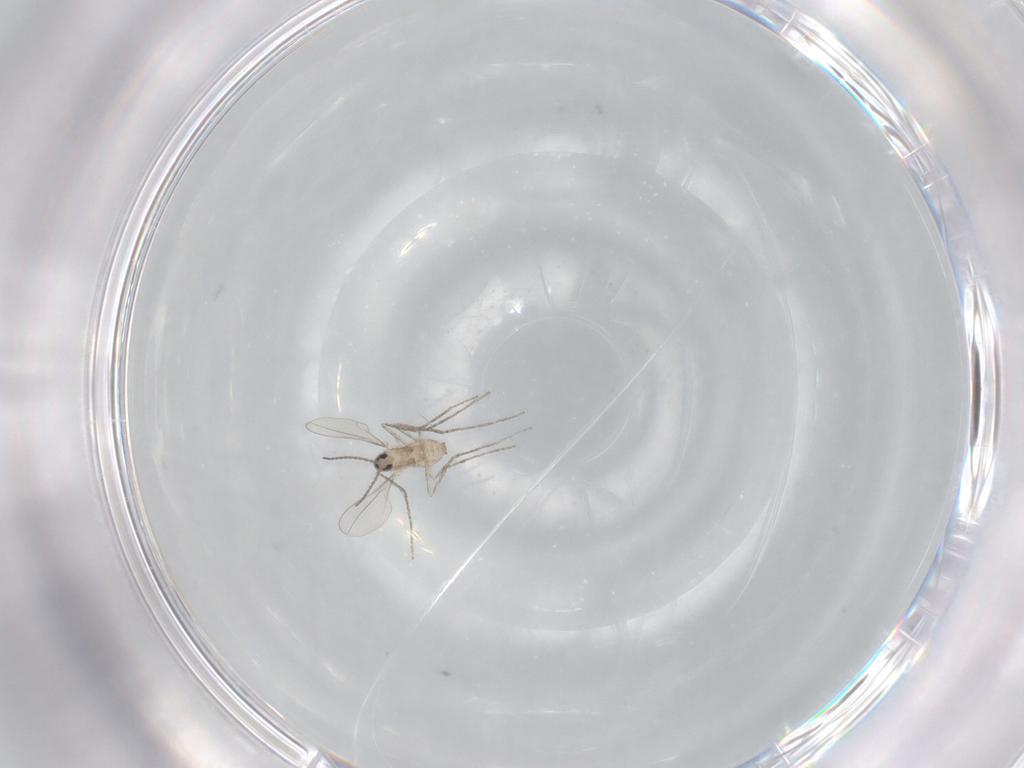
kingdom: Animalia
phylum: Arthropoda
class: Insecta
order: Diptera
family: Cecidomyiidae
